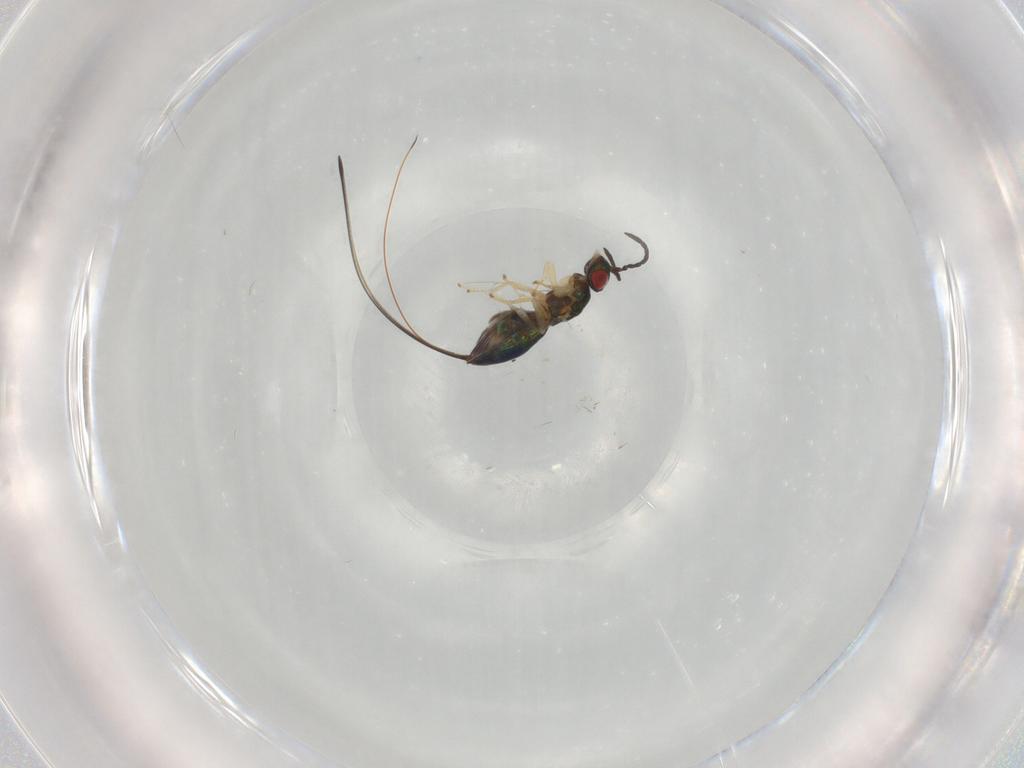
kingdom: Animalia
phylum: Arthropoda
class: Insecta
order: Hymenoptera
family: Pteromalidae
